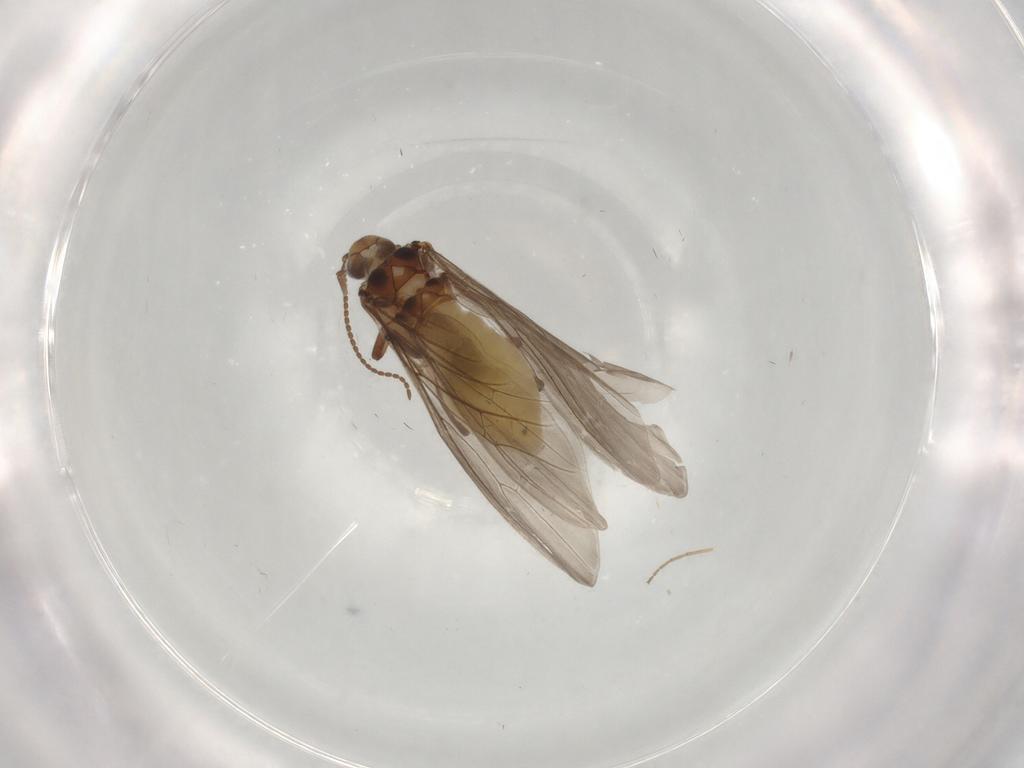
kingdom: Animalia
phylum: Arthropoda
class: Insecta
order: Neuroptera
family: Coniopterygidae
